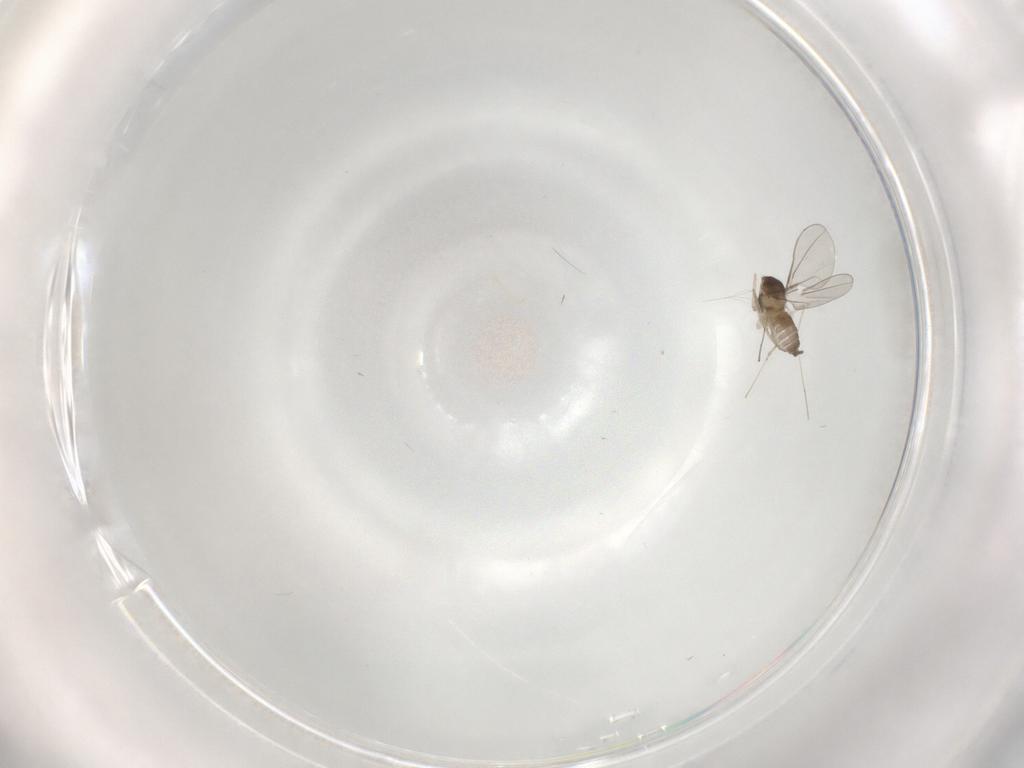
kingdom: Animalia
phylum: Arthropoda
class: Insecta
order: Diptera
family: Cecidomyiidae
